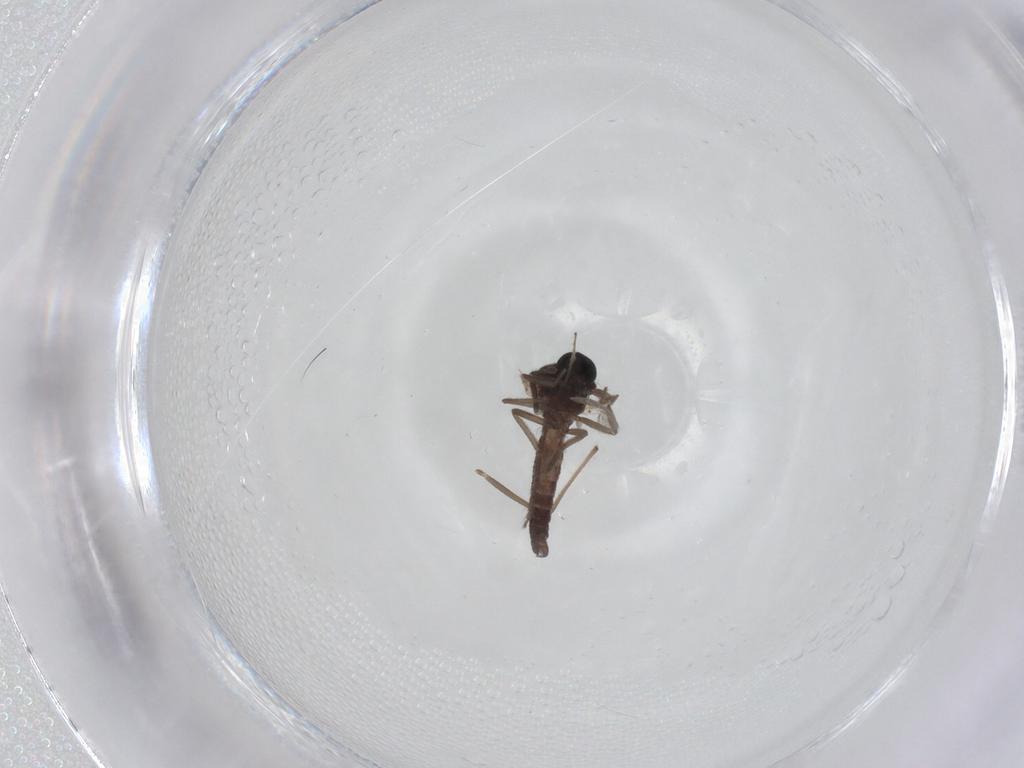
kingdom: Animalia
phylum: Arthropoda
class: Insecta
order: Diptera
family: Ceratopogonidae
